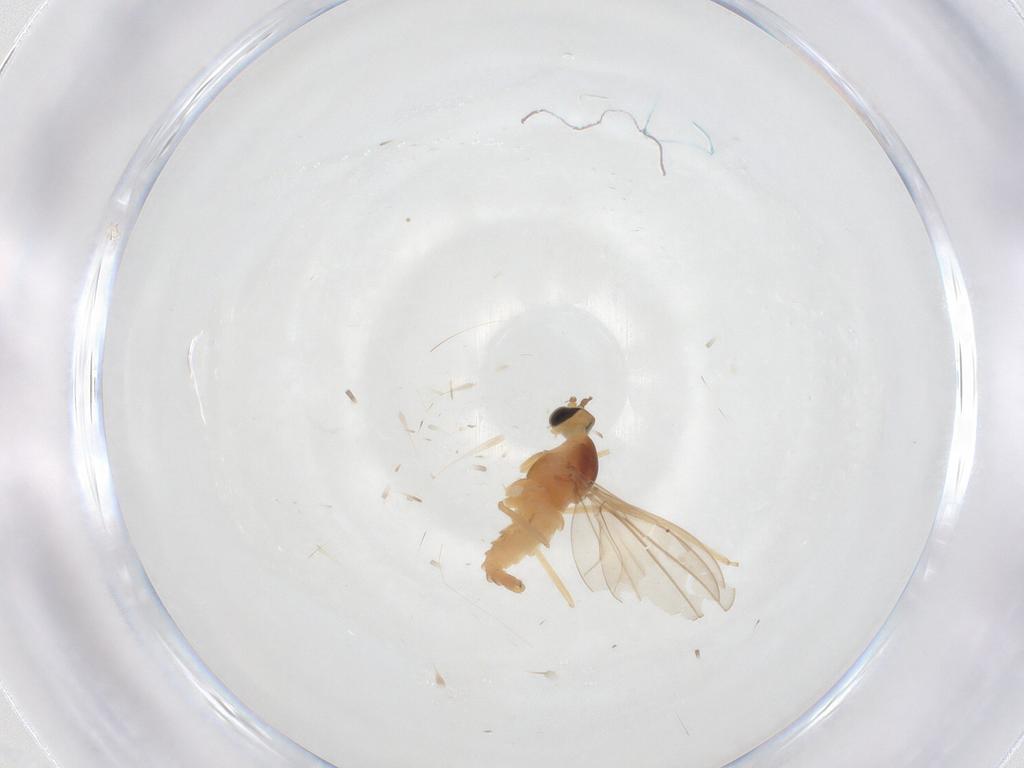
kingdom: Animalia
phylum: Arthropoda
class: Insecta
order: Diptera
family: Cecidomyiidae
